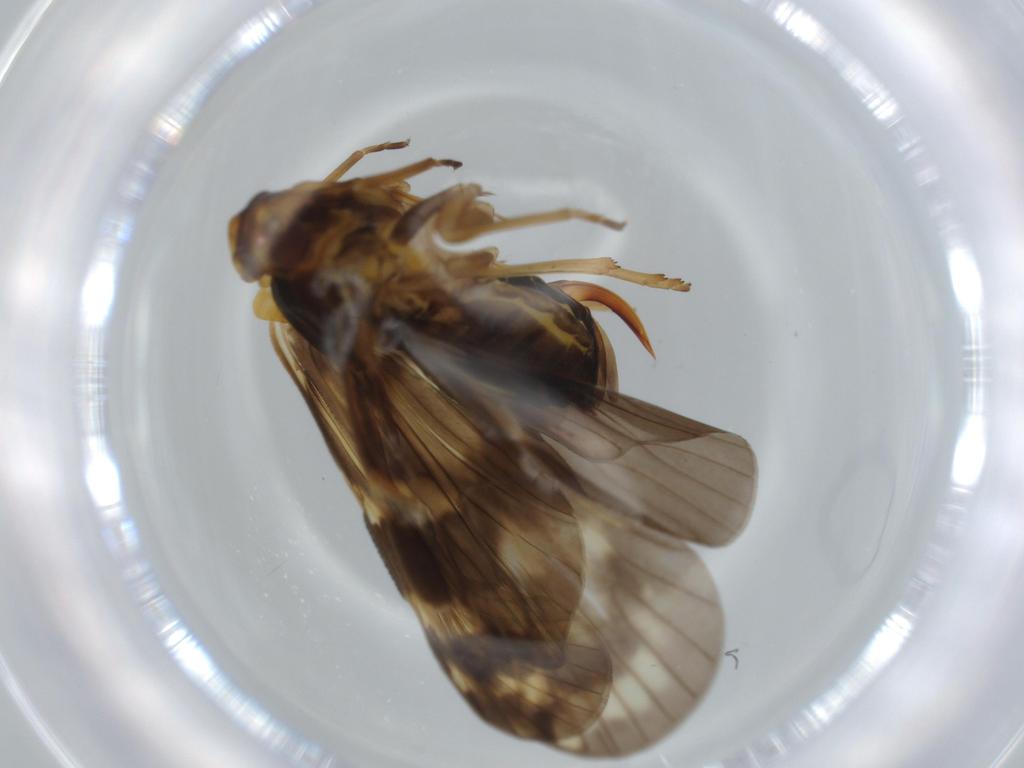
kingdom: Animalia
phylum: Arthropoda
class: Insecta
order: Hemiptera
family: Cixiidae
